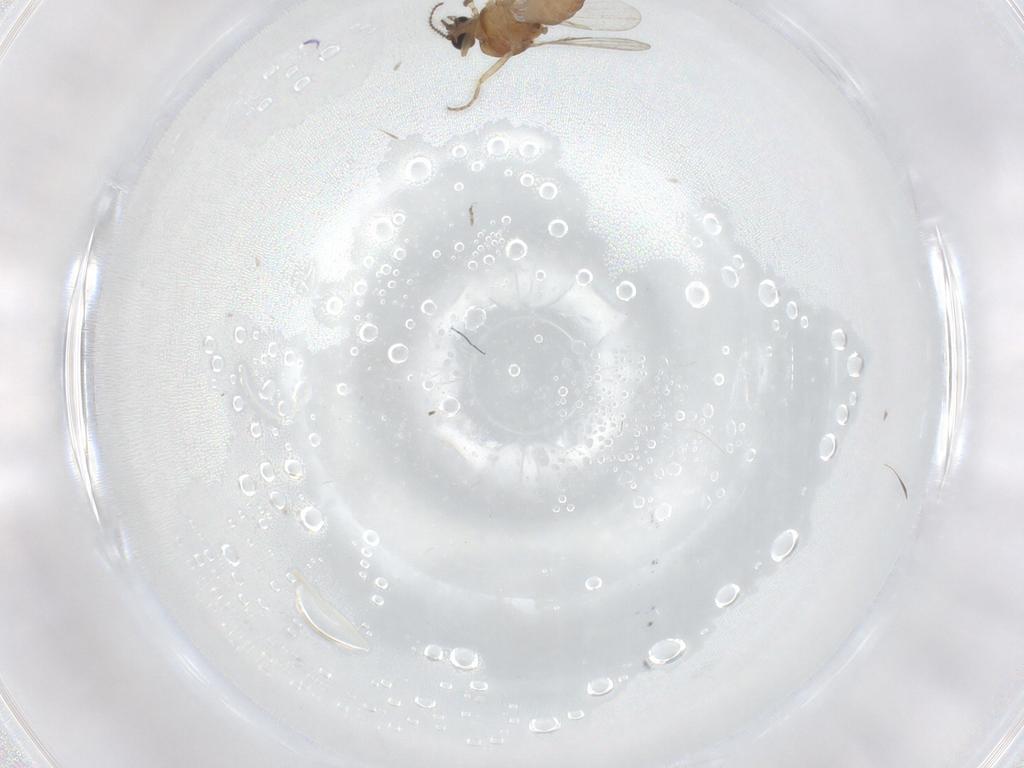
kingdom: Animalia
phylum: Arthropoda
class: Insecta
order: Diptera
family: Ceratopogonidae
